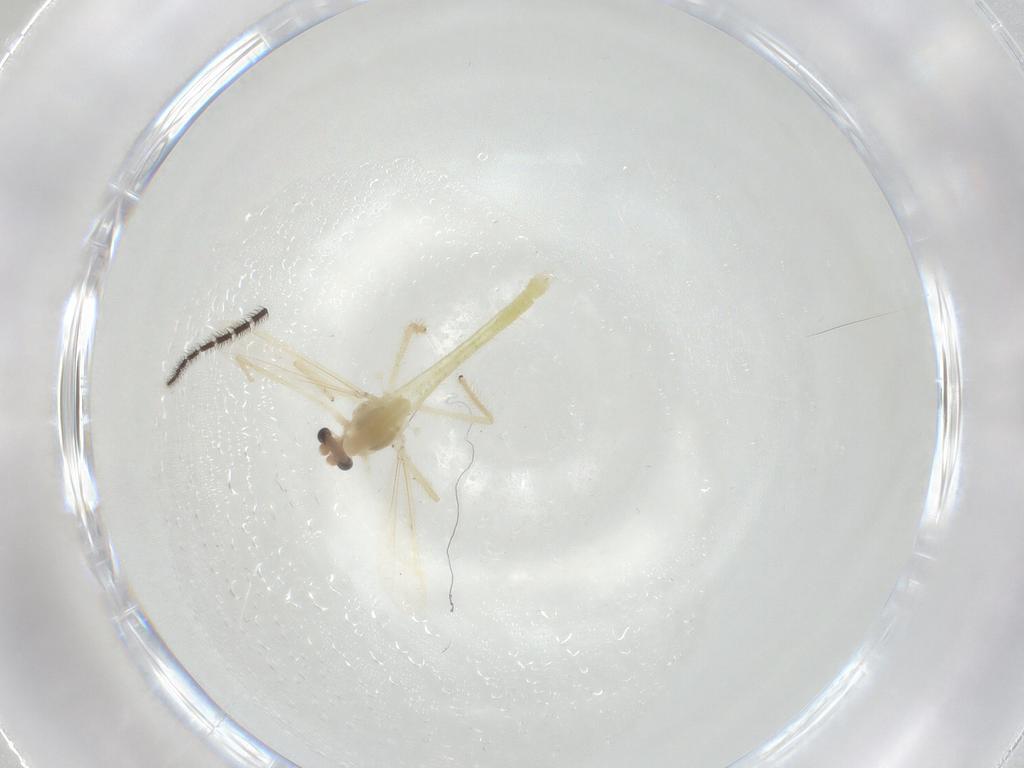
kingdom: Animalia
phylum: Arthropoda
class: Insecta
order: Diptera
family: Chironomidae
